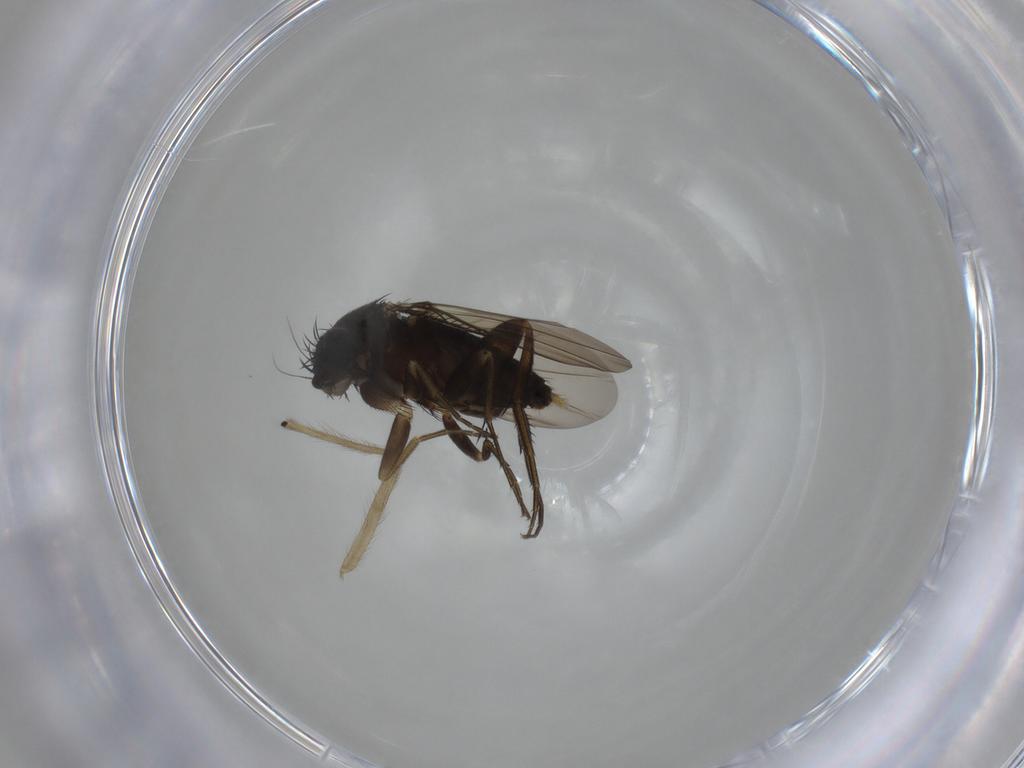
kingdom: Animalia
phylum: Arthropoda
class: Insecta
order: Diptera
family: Phoridae
